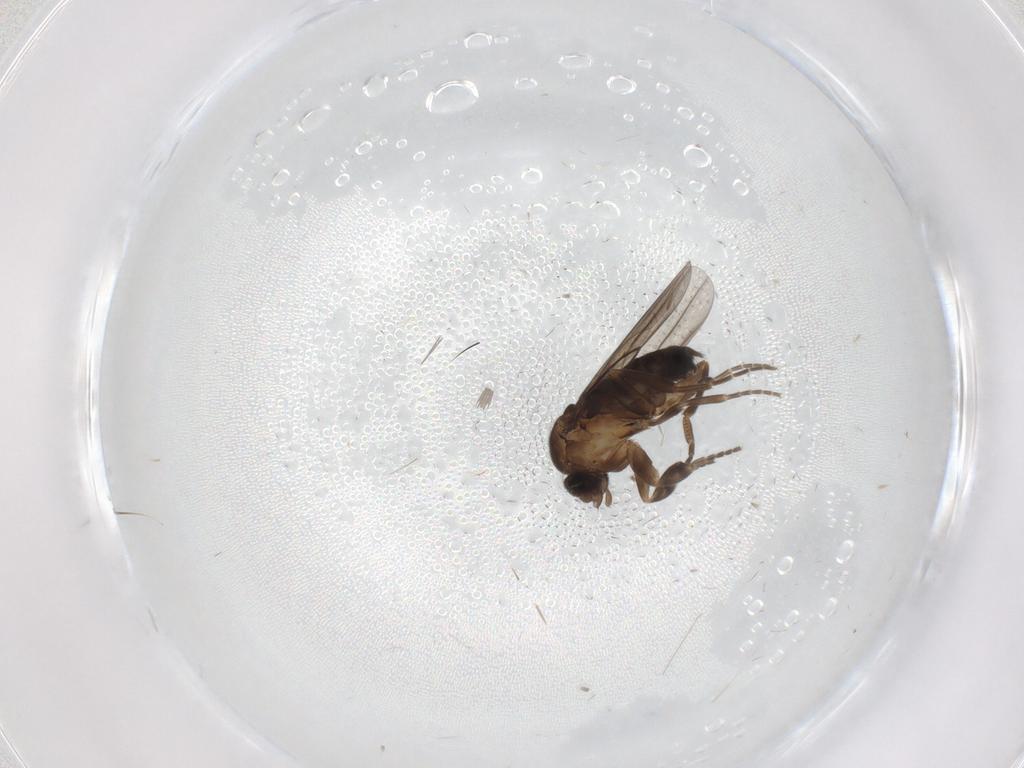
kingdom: Animalia
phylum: Arthropoda
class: Insecta
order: Diptera
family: Phoridae
